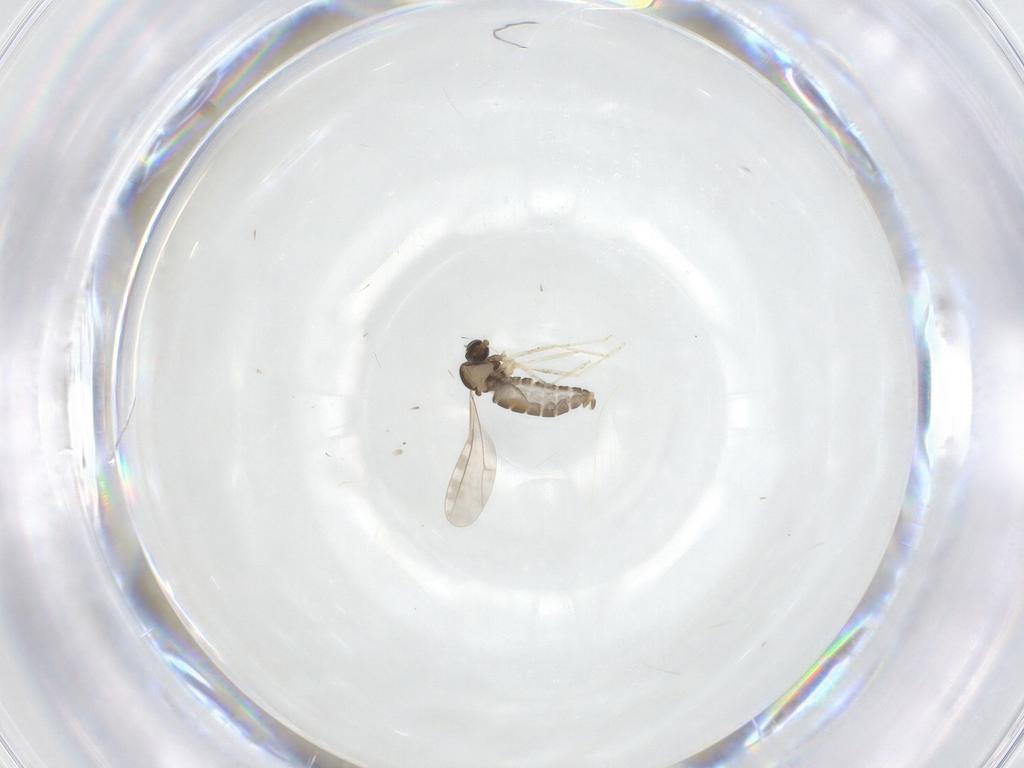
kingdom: Animalia
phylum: Arthropoda
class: Insecta
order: Diptera
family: Cecidomyiidae
